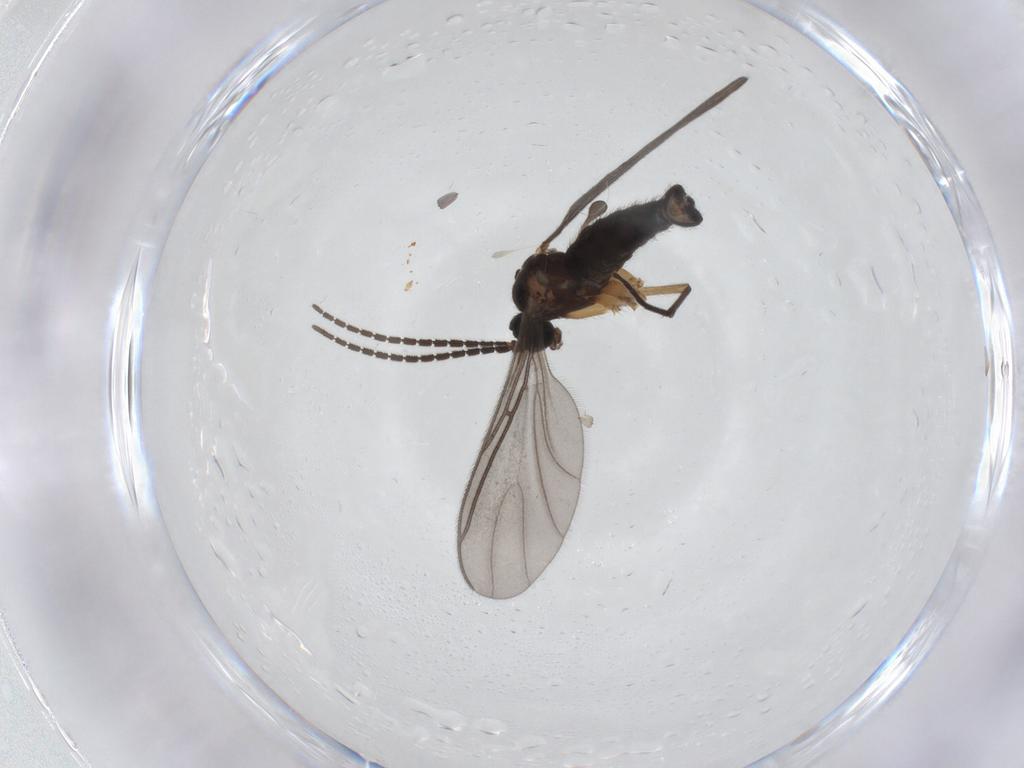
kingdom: Animalia
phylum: Arthropoda
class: Insecta
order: Diptera
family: Sciaridae
